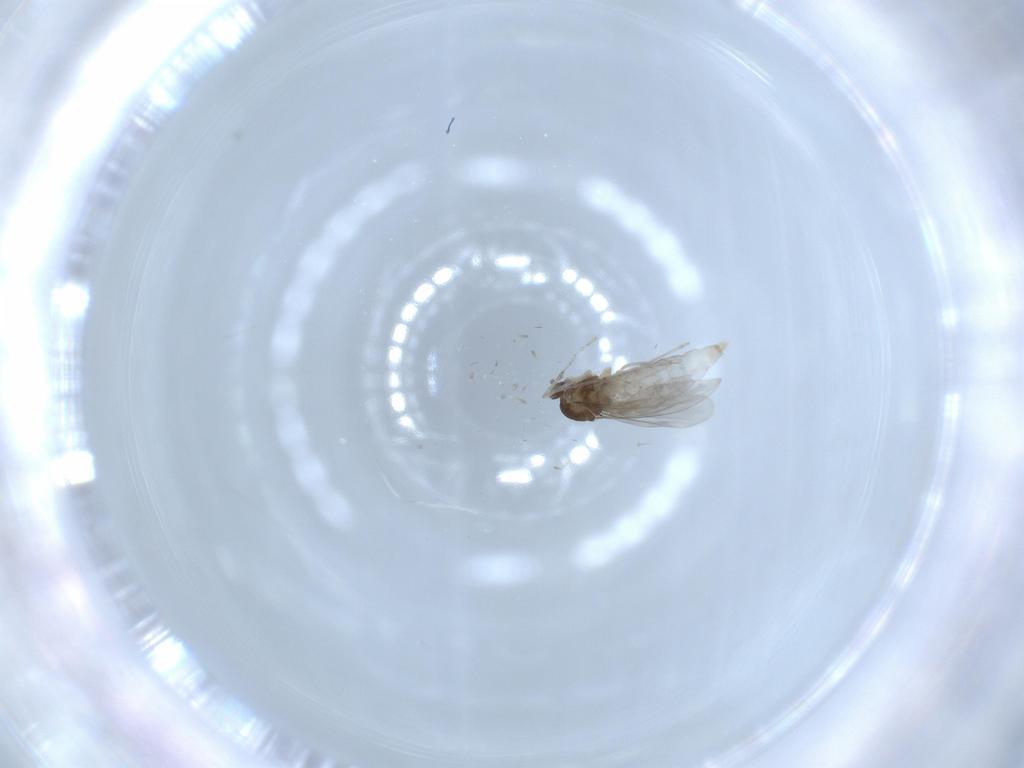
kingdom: Animalia
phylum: Arthropoda
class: Insecta
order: Diptera
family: Cecidomyiidae
